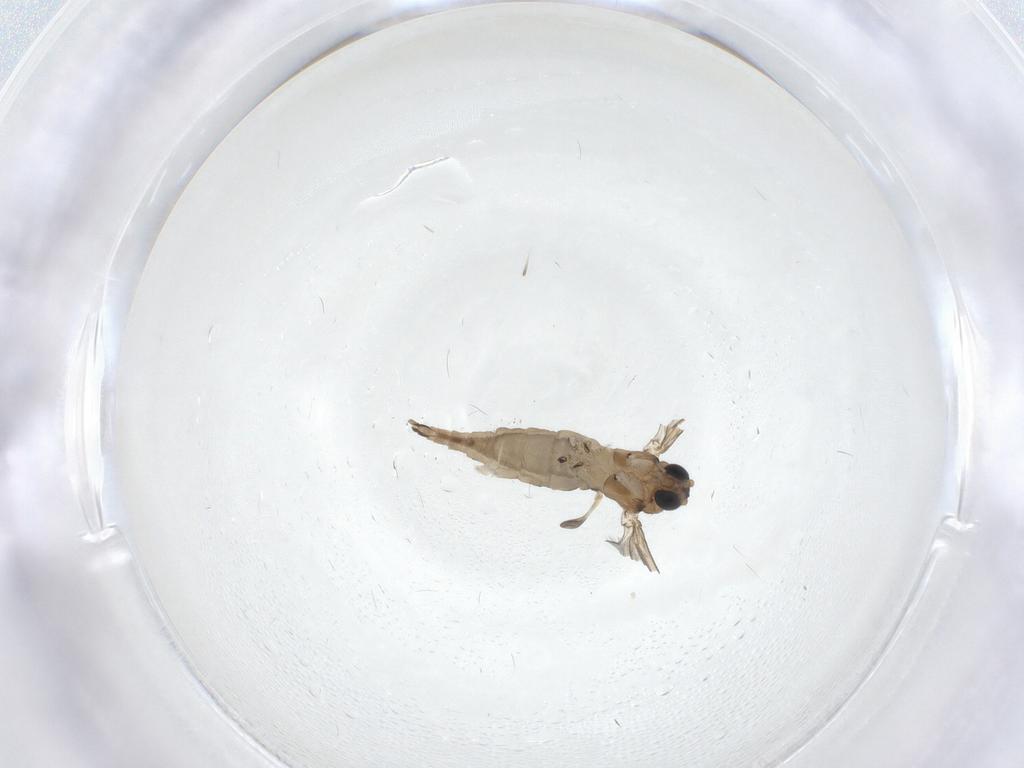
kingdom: Animalia
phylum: Arthropoda
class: Insecta
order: Diptera
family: Sciaridae
